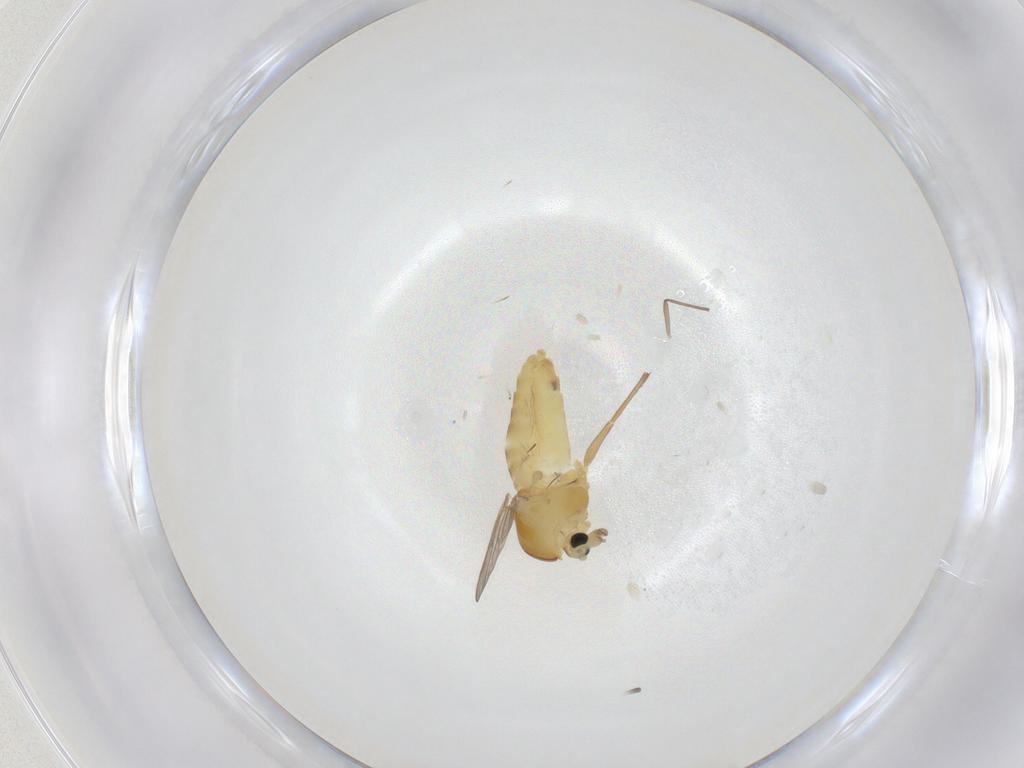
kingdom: Animalia
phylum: Arthropoda
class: Insecta
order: Diptera
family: Chironomidae
